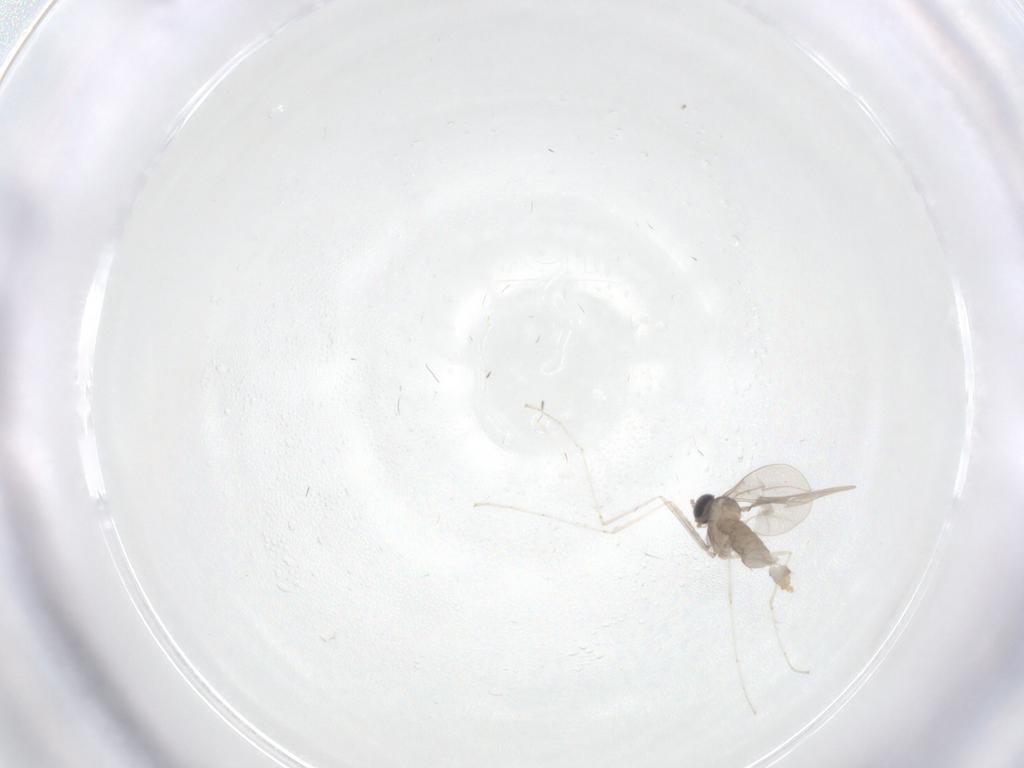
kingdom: Animalia
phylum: Arthropoda
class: Insecta
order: Diptera
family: Cecidomyiidae
